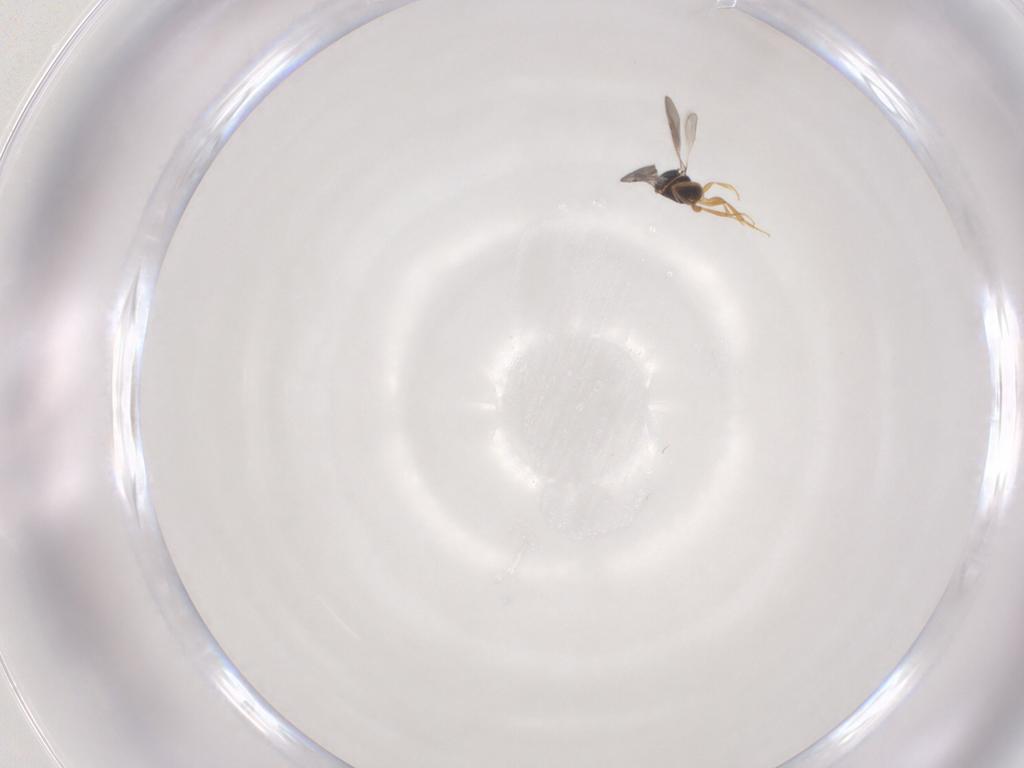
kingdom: Animalia
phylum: Arthropoda
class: Insecta
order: Hymenoptera
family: Ceraphronidae
